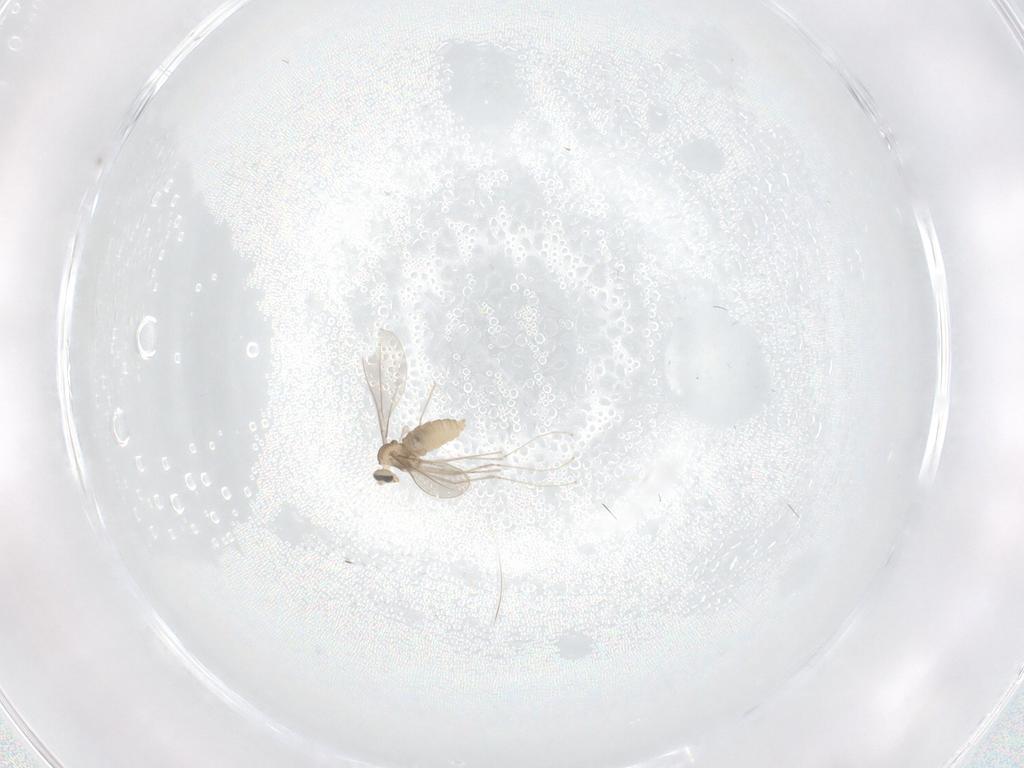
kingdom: Animalia
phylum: Arthropoda
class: Insecta
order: Diptera
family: Cecidomyiidae
